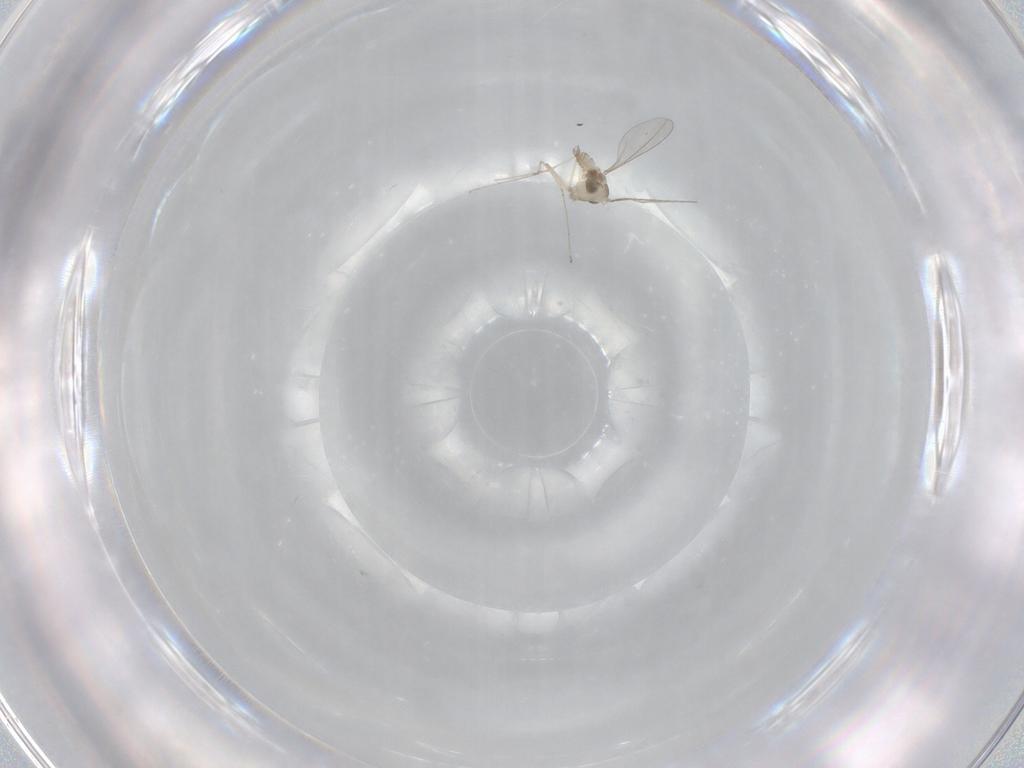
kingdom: Animalia
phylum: Arthropoda
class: Insecta
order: Diptera
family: Cecidomyiidae
